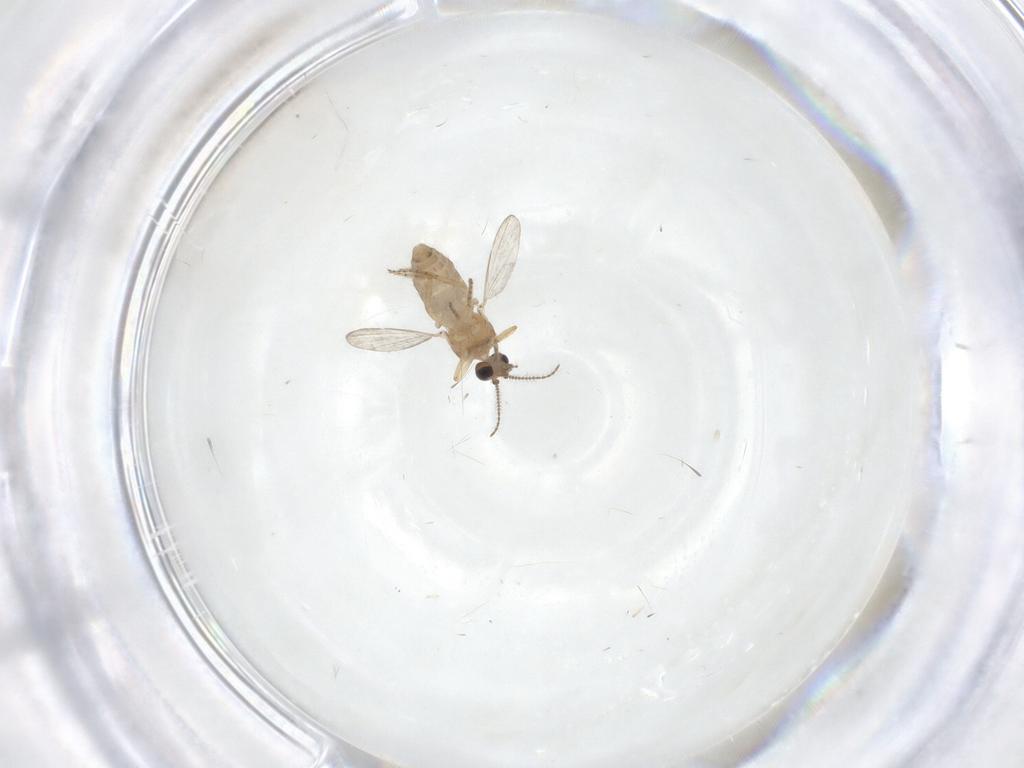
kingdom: Animalia
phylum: Arthropoda
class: Insecta
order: Diptera
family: Ceratopogonidae
